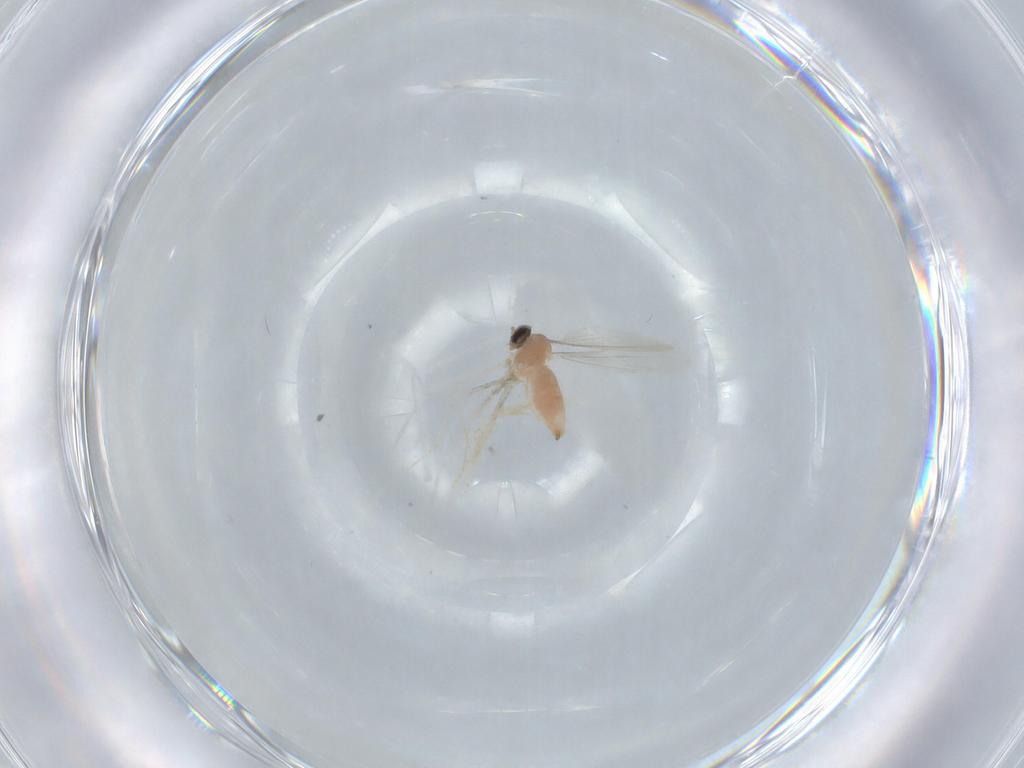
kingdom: Animalia
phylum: Arthropoda
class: Insecta
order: Diptera
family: Cecidomyiidae
